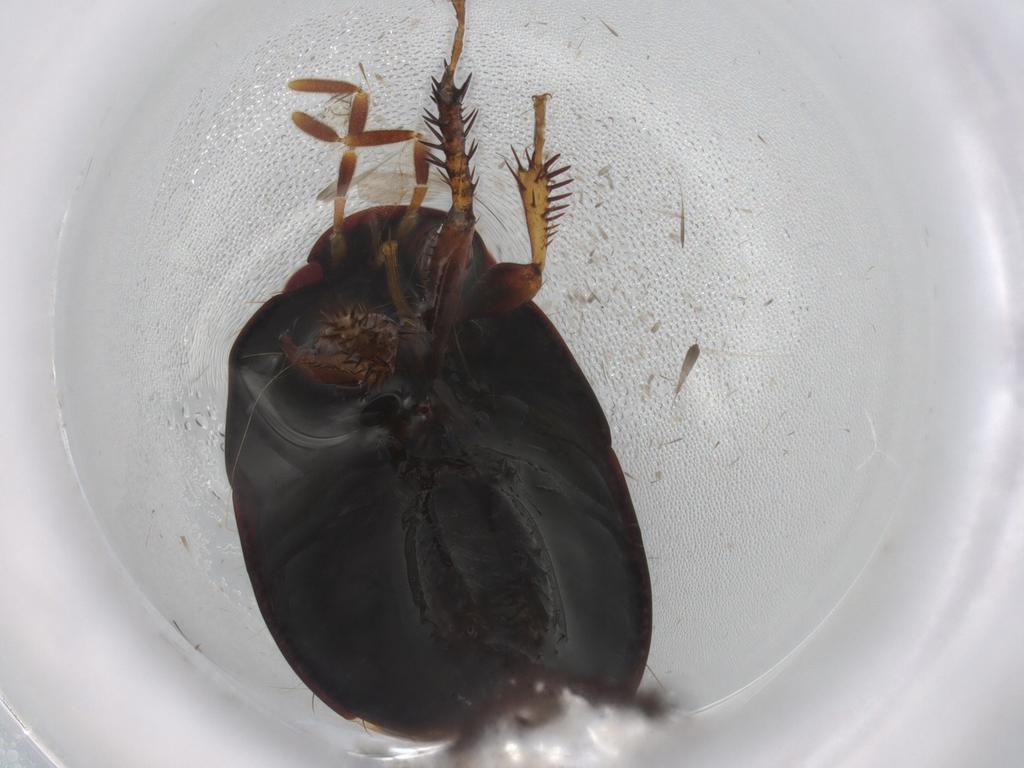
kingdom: Animalia
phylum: Arthropoda
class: Insecta
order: Hemiptera
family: Cydnidae
